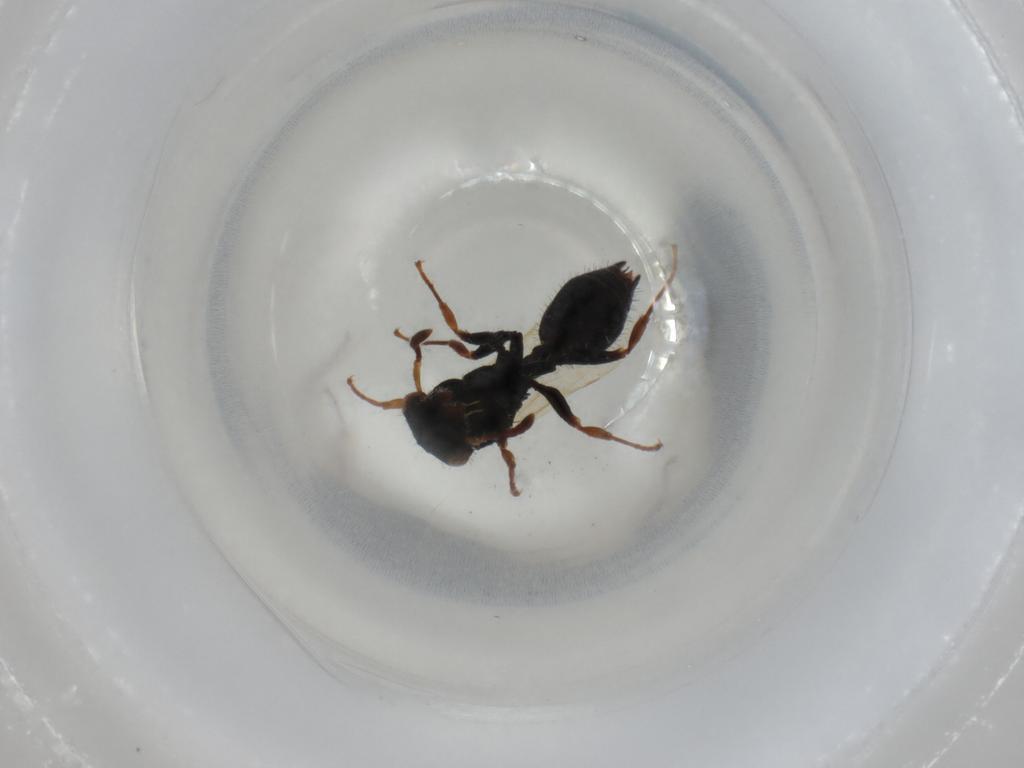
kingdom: Animalia
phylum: Arthropoda
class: Insecta
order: Hymenoptera
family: Formicidae
